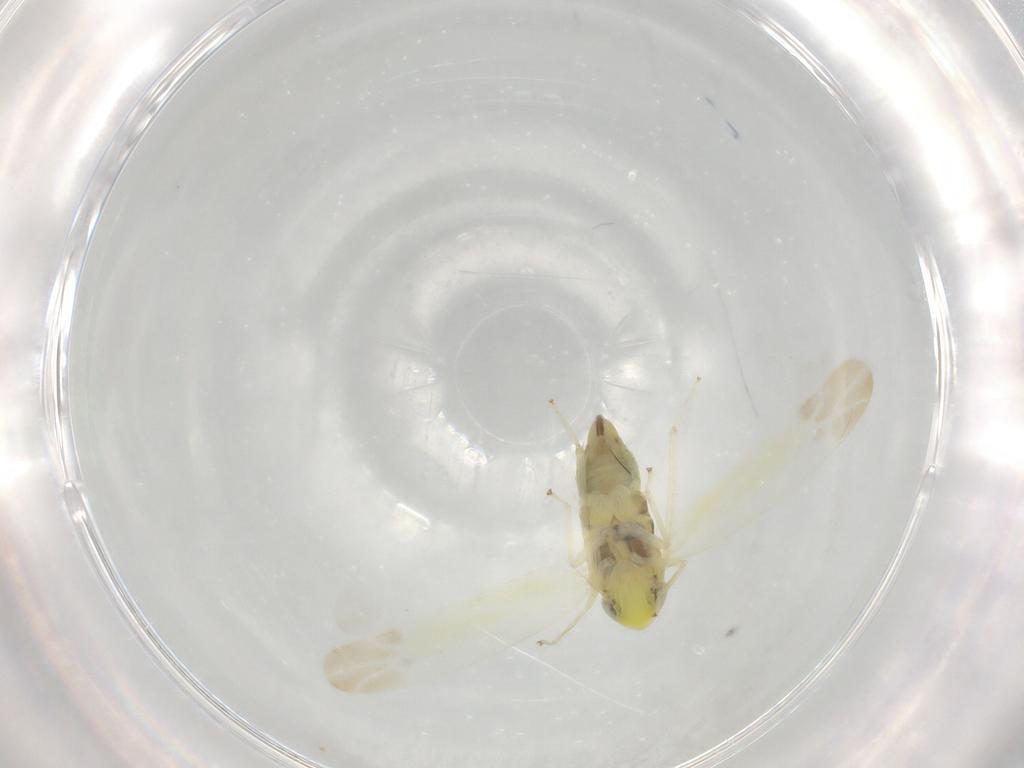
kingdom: Animalia
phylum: Arthropoda
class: Insecta
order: Hemiptera
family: Cicadellidae
